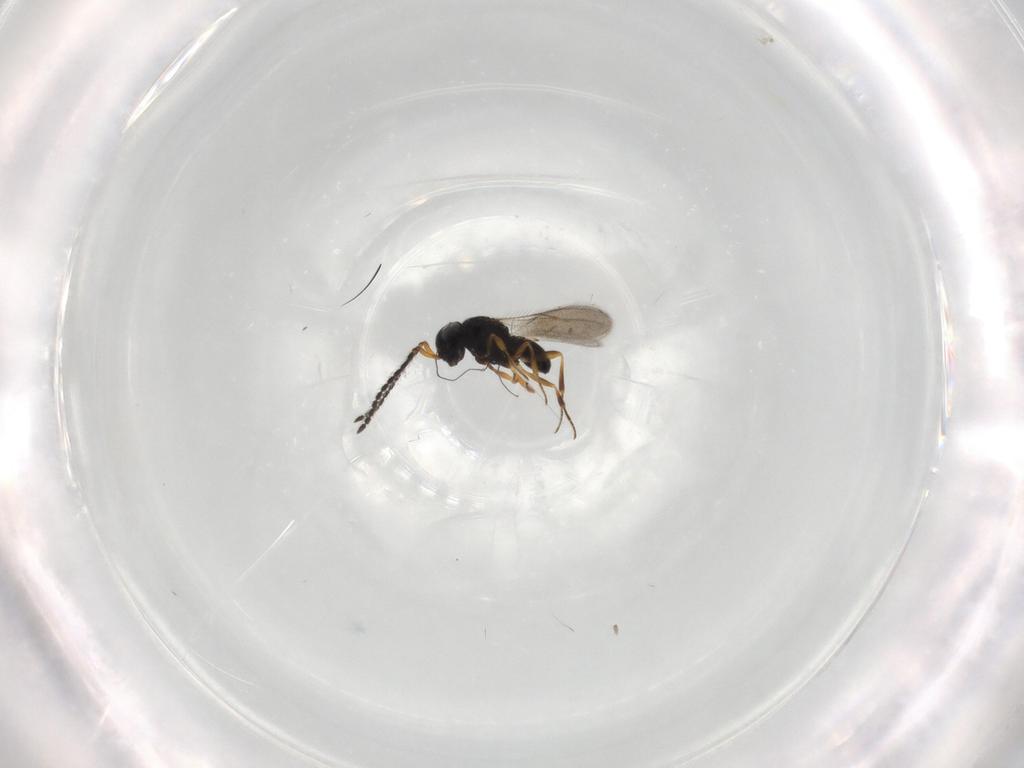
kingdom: Animalia
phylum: Arthropoda
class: Insecta
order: Hymenoptera
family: Scelionidae
